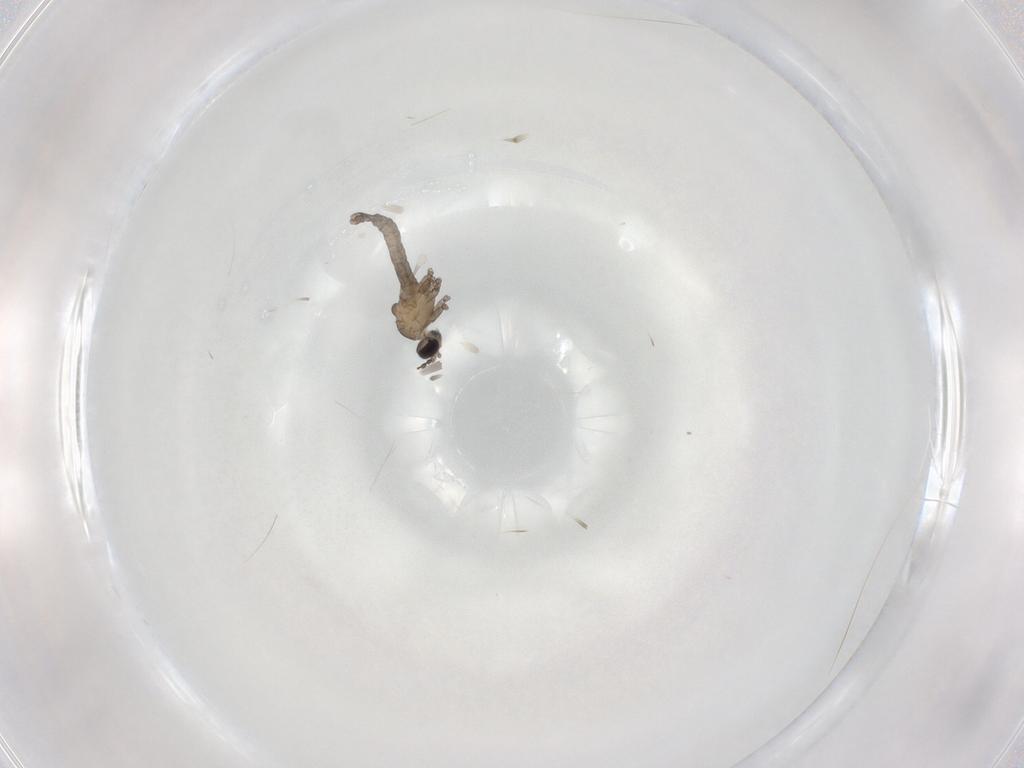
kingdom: Animalia
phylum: Arthropoda
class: Insecta
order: Diptera
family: Cecidomyiidae
